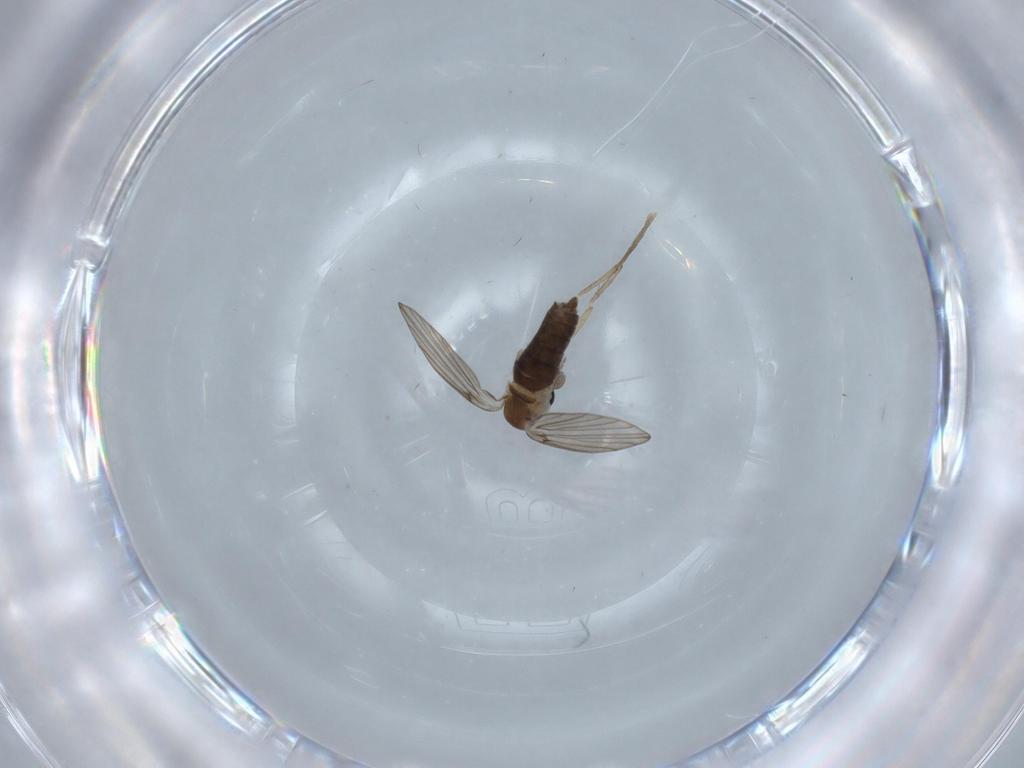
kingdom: Animalia
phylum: Arthropoda
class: Insecta
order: Diptera
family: Psychodidae
